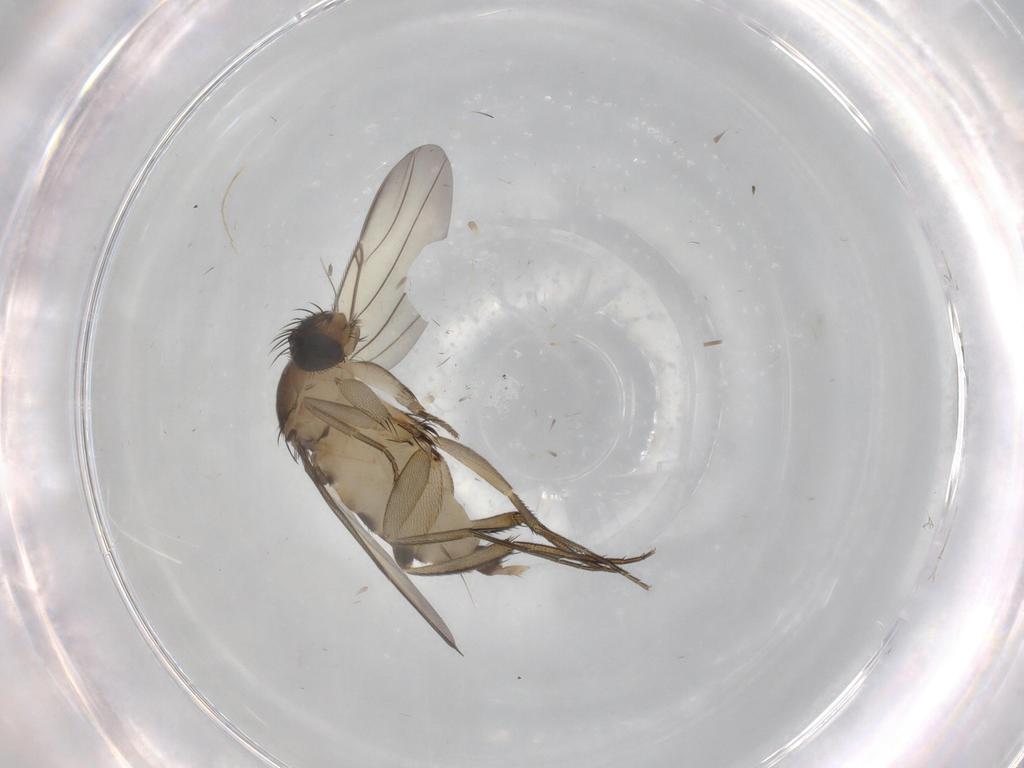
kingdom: Animalia
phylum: Arthropoda
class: Insecta
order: Diptera
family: Phoridae
